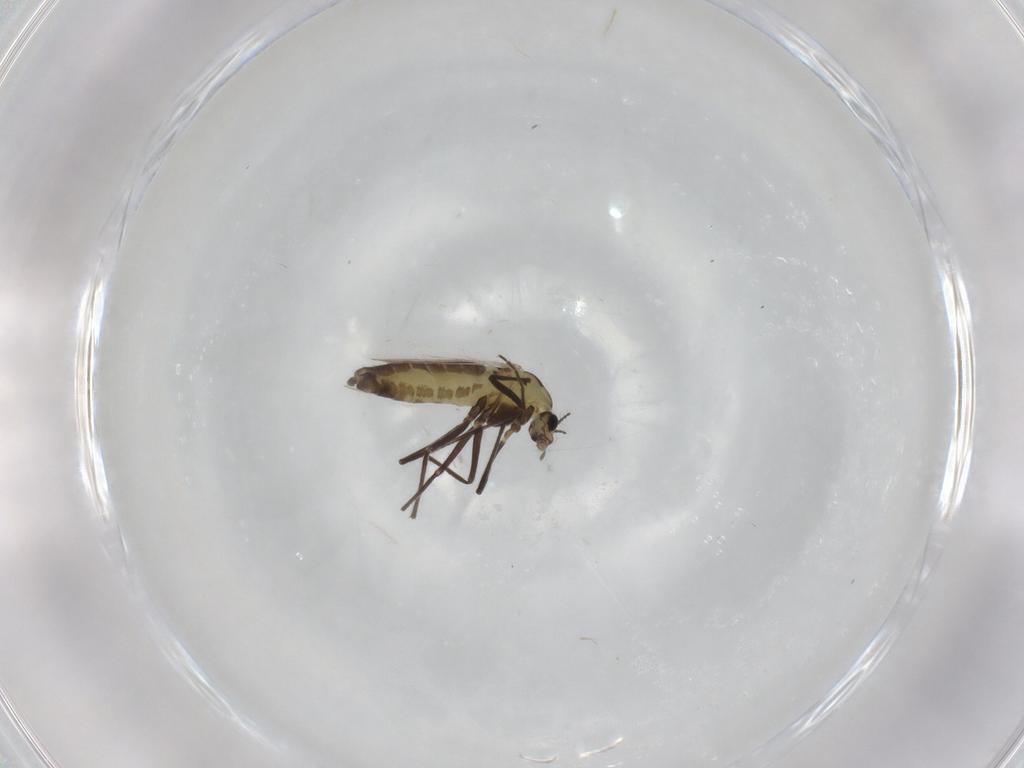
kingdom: Animalia
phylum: Arthropoda
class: Insecta
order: Diptera
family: Chironomidae
